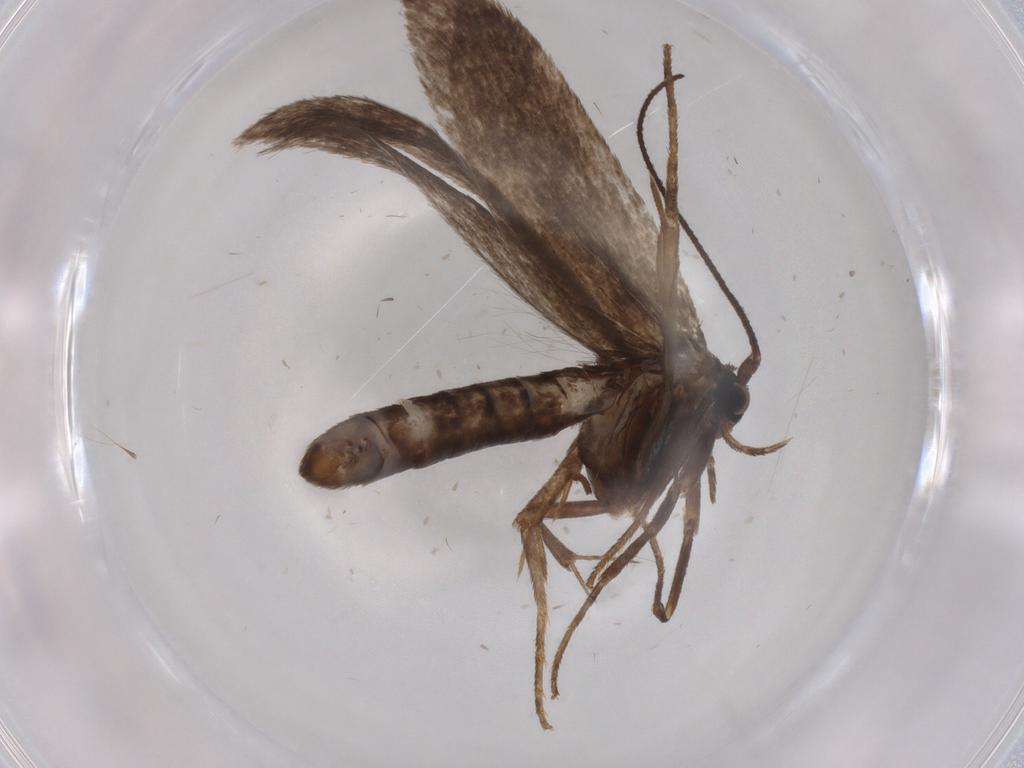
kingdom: Animalia
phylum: Arthropoda
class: Insecta
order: Lepidoptera
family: Argyresthiidae
